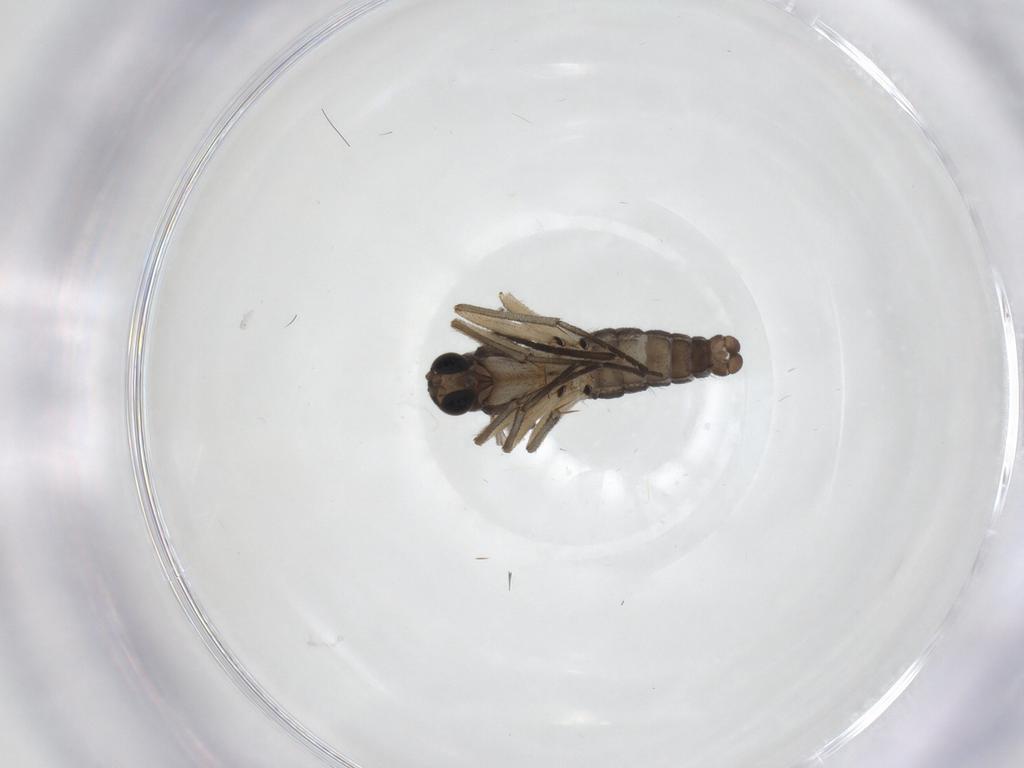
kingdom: Animalia
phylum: Arthropoda
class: Insecta
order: Diptera
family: Sciaridae
